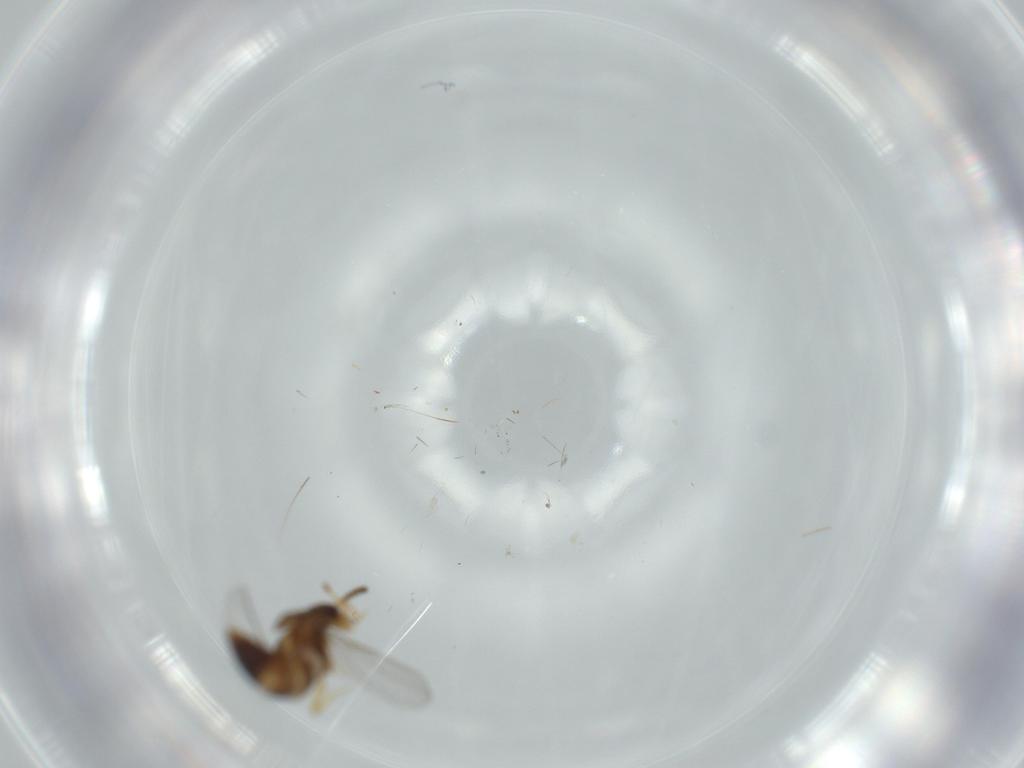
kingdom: Animalia
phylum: Arthropoda
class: Insecta
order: Coleoptera
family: Staphylinidae
